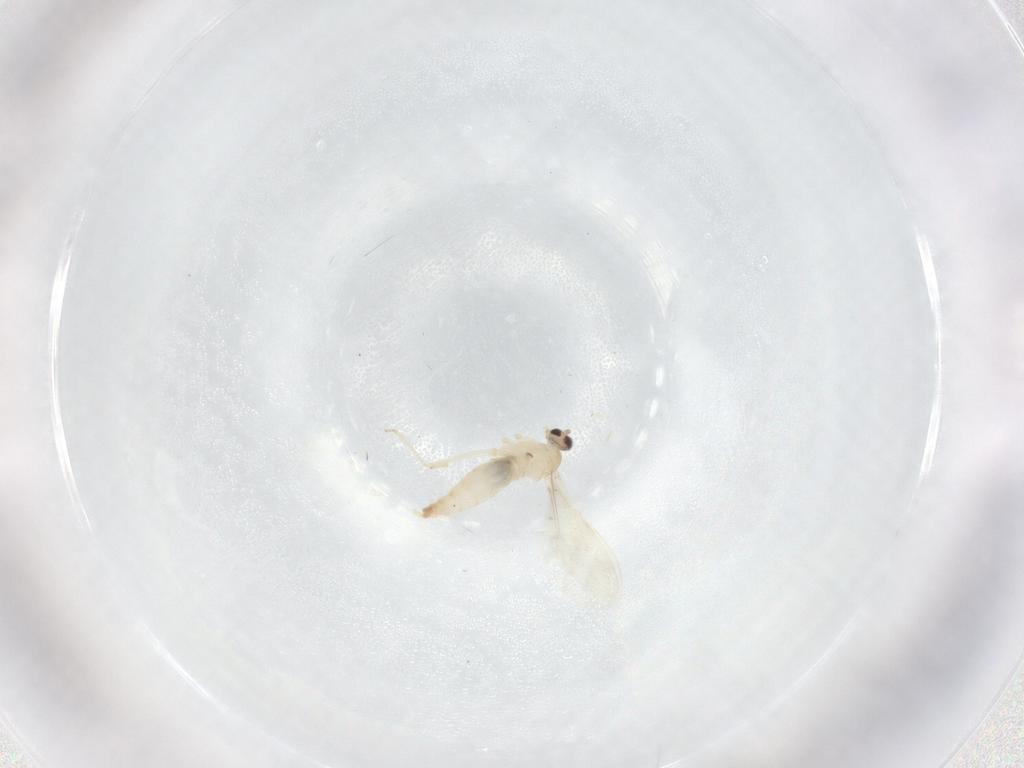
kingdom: Animalia
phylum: Arthropoda
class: Insecta
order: Diptera
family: Cecidomyiidae
